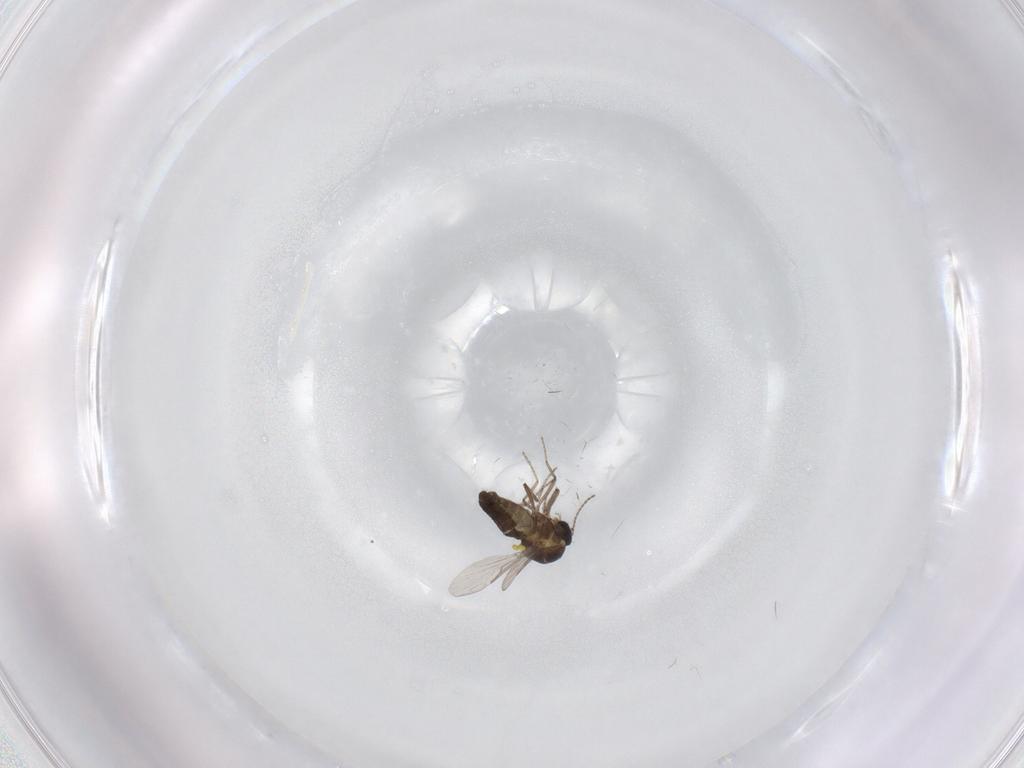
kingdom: Animalia
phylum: Arthropoda
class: Insecta
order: Diptera
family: Ceratopogonidae
